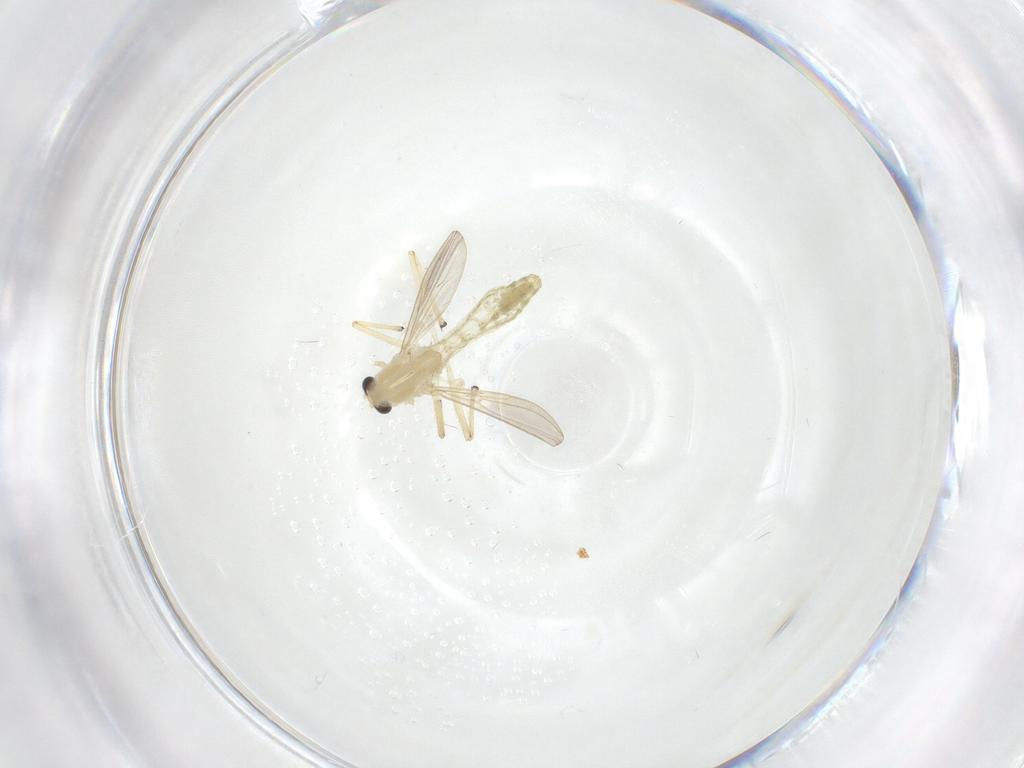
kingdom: Animalia
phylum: Arthropoda
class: Insecta
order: Diptera
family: Chironomidae
